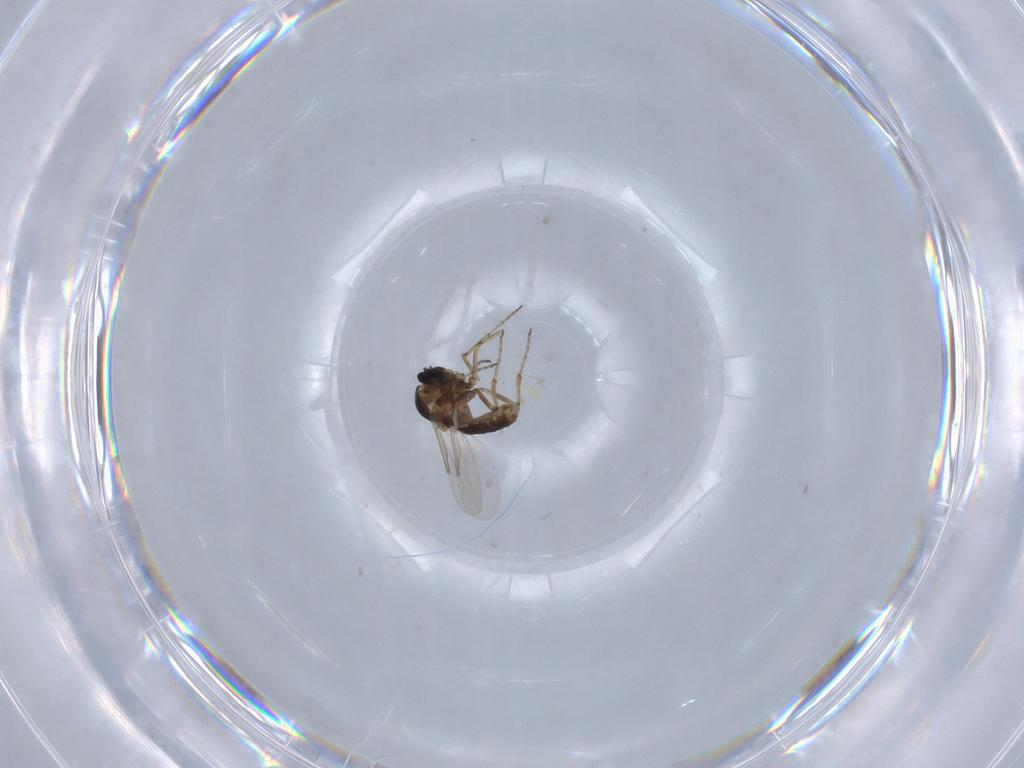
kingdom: Animalia
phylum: Arthropoda
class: Insecta
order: Diptera
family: Ceratopogonidae
